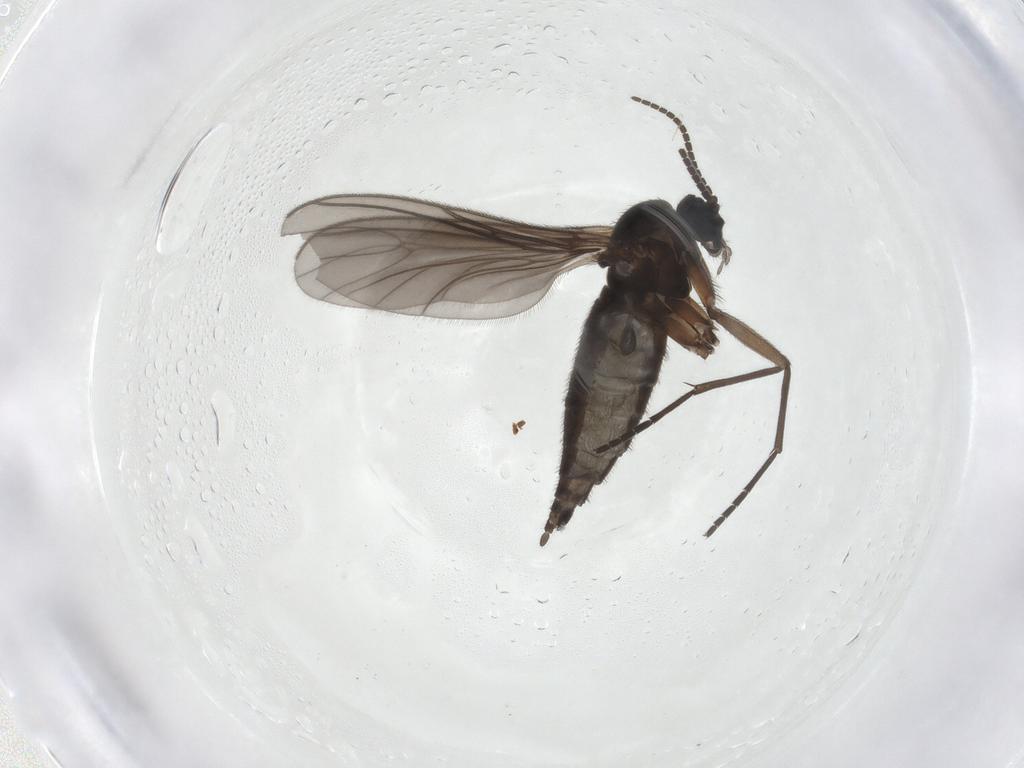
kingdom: Animalia
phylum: Arthropoda
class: Insecta
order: Diptera
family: Sciaridae
